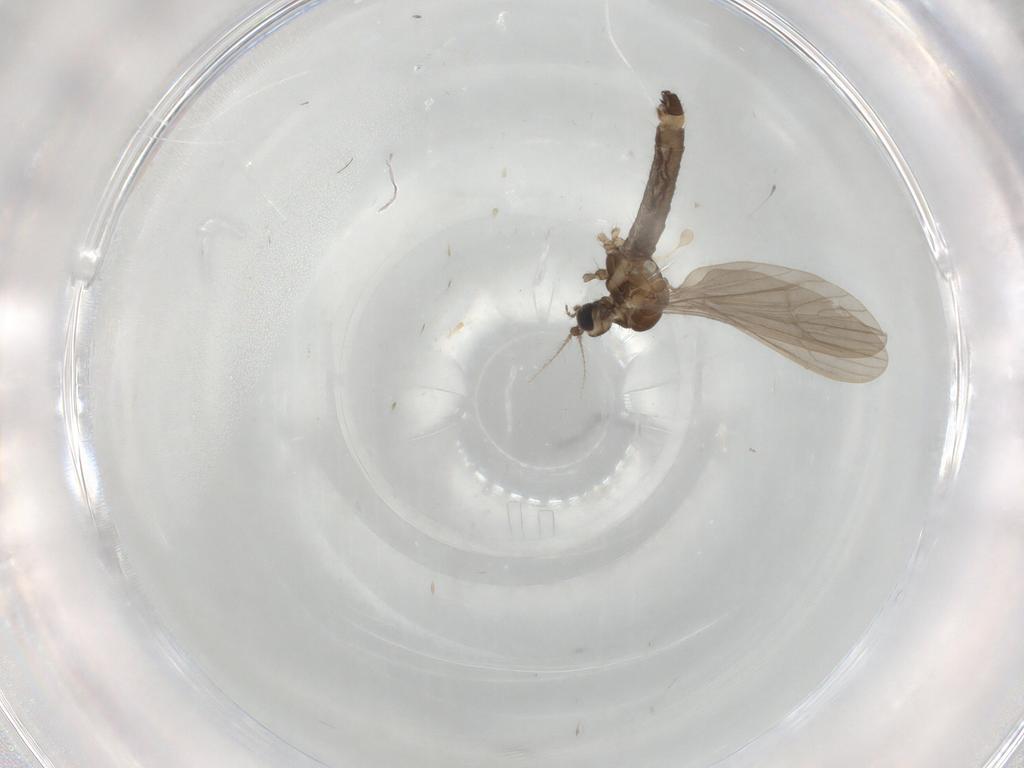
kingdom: Animalia
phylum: Arthropoda
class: Insecta
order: Diptera
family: Limoniidae
